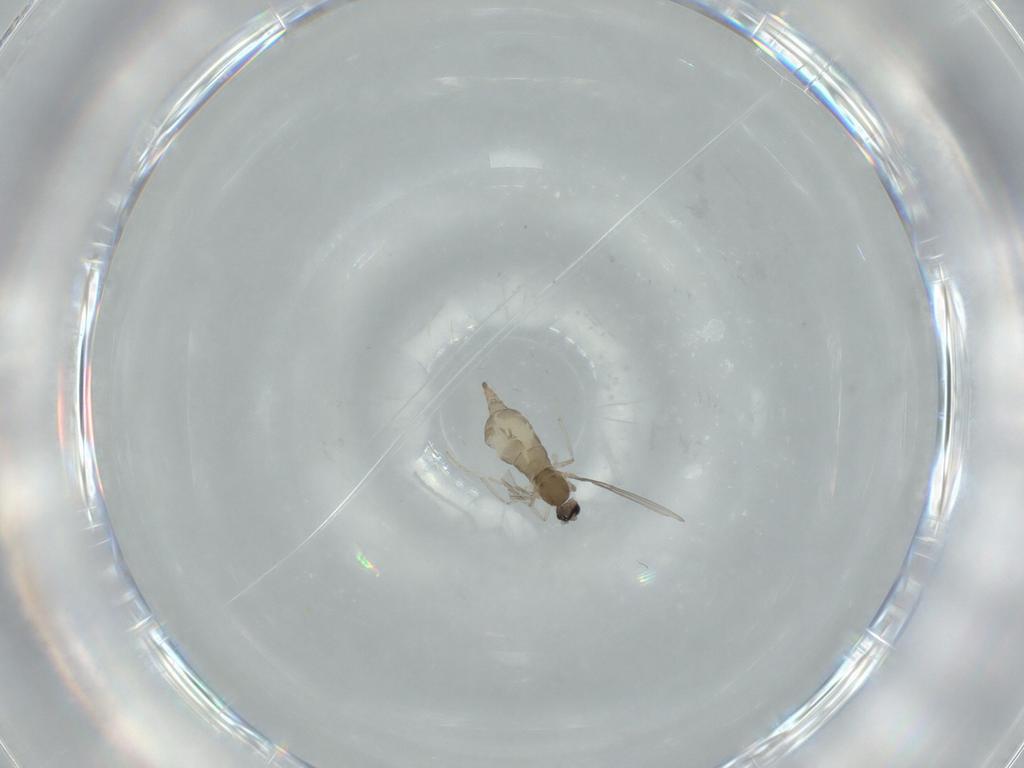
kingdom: Animalia
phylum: Arthropoda
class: Insecta
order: Diptera
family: Cecidomyiidae
